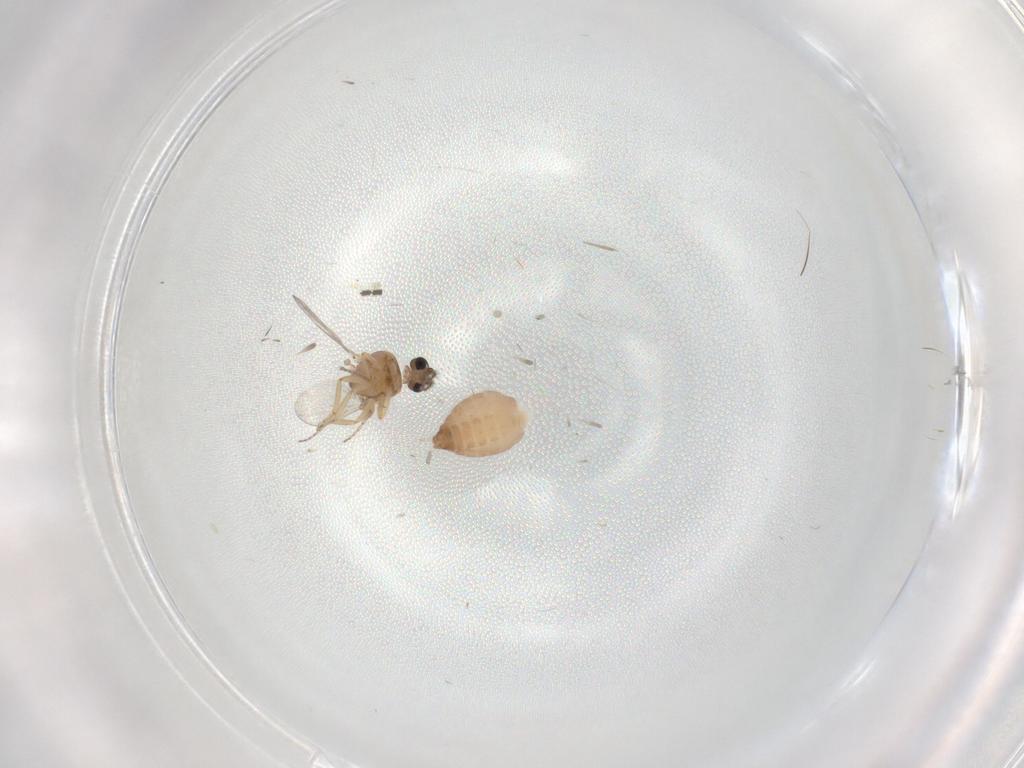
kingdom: Animalia
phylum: Arthropoda
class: Insecta
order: Diptera
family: Ceratopogonidae
